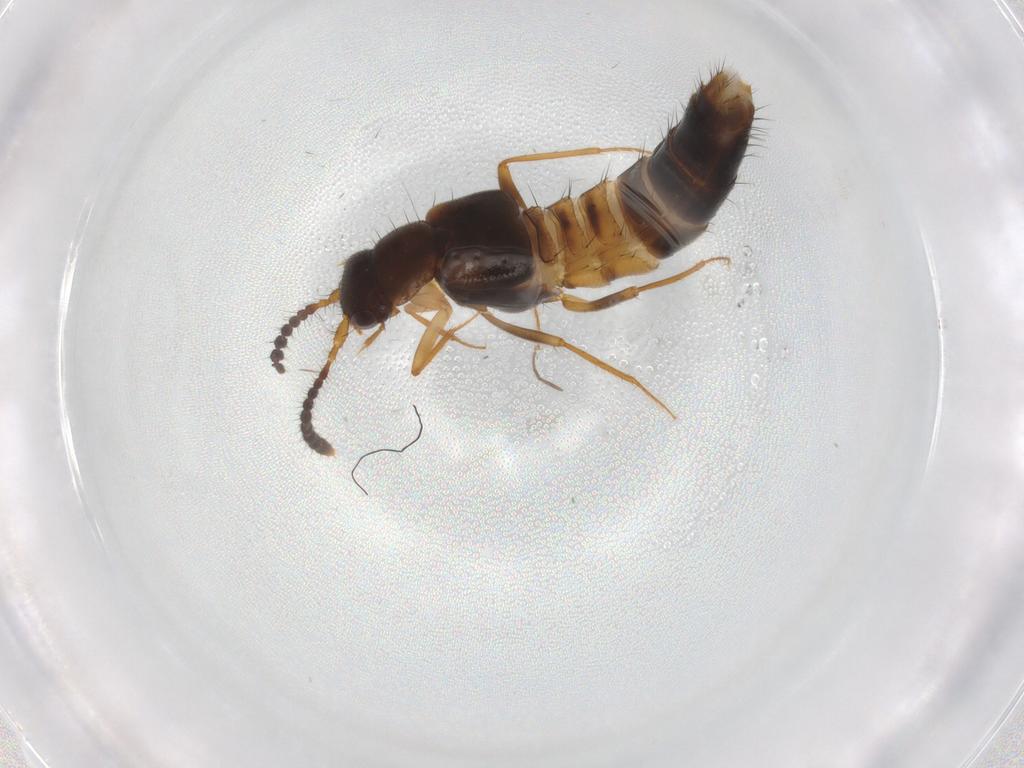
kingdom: Animalia
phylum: Arthropoda
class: Insecta
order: Coleoptera
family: Staphylinidae
